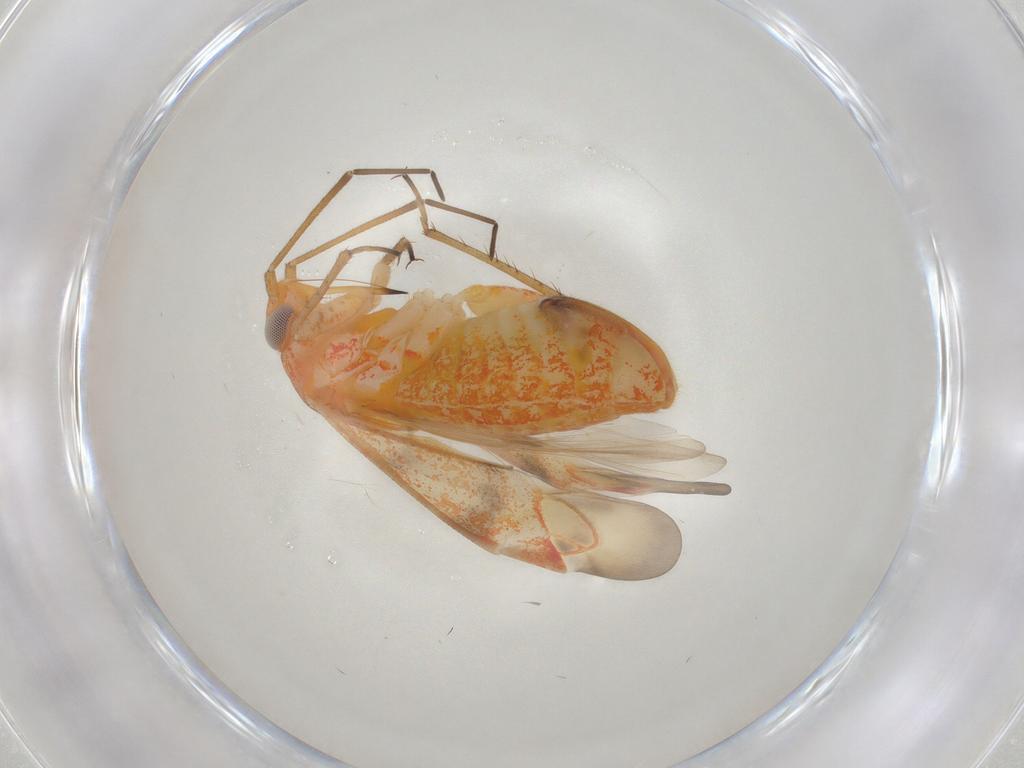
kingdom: Animalia
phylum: Arthropoda
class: Insecta
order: Hemiptera
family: Miridae
